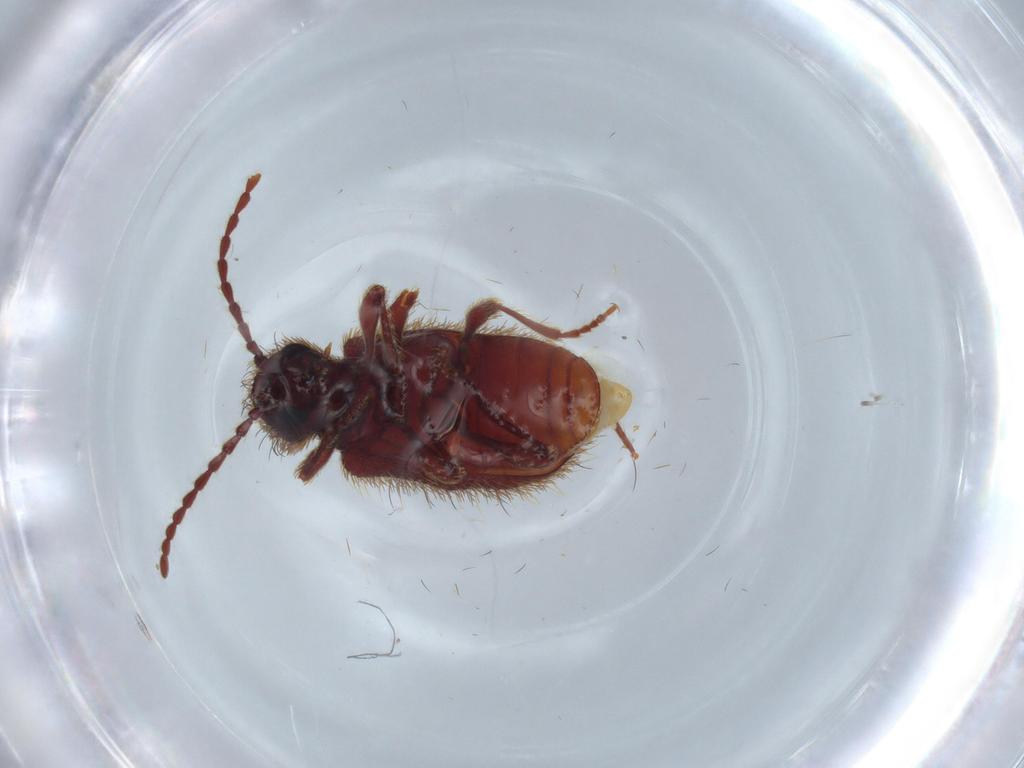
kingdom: Animalia
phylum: Arthropoda
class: Insecta
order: Coleoptera
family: Ptinidae
